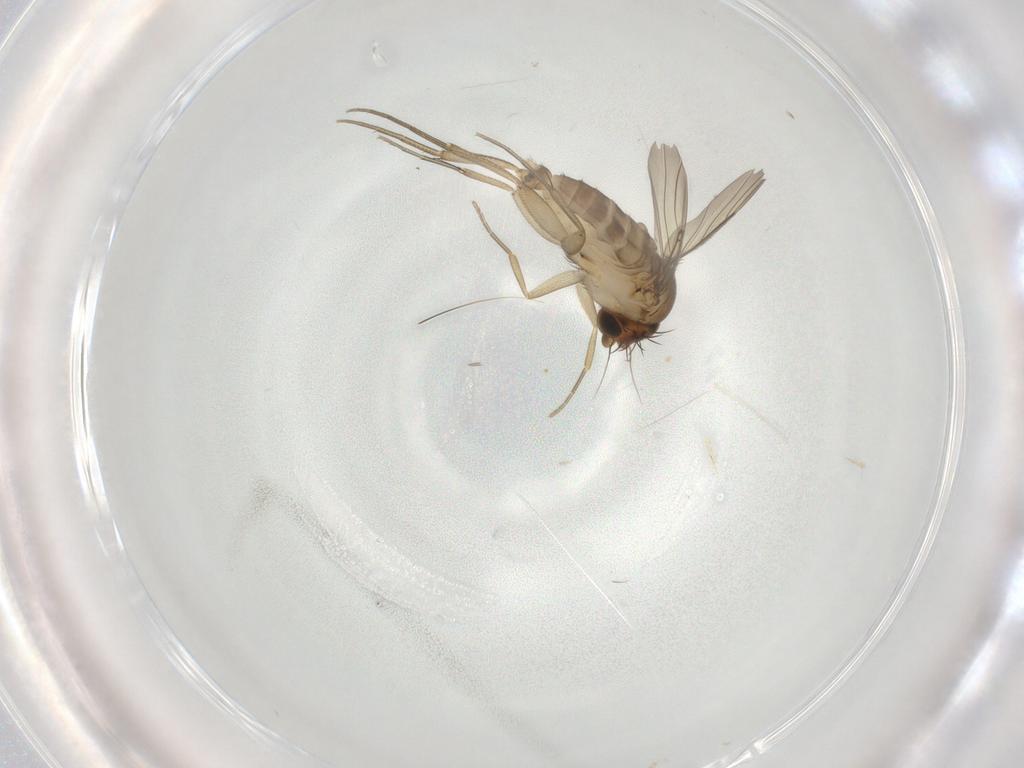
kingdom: Animalia
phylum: Arthropoda
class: Insecta
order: Diptera
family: Phoridae
